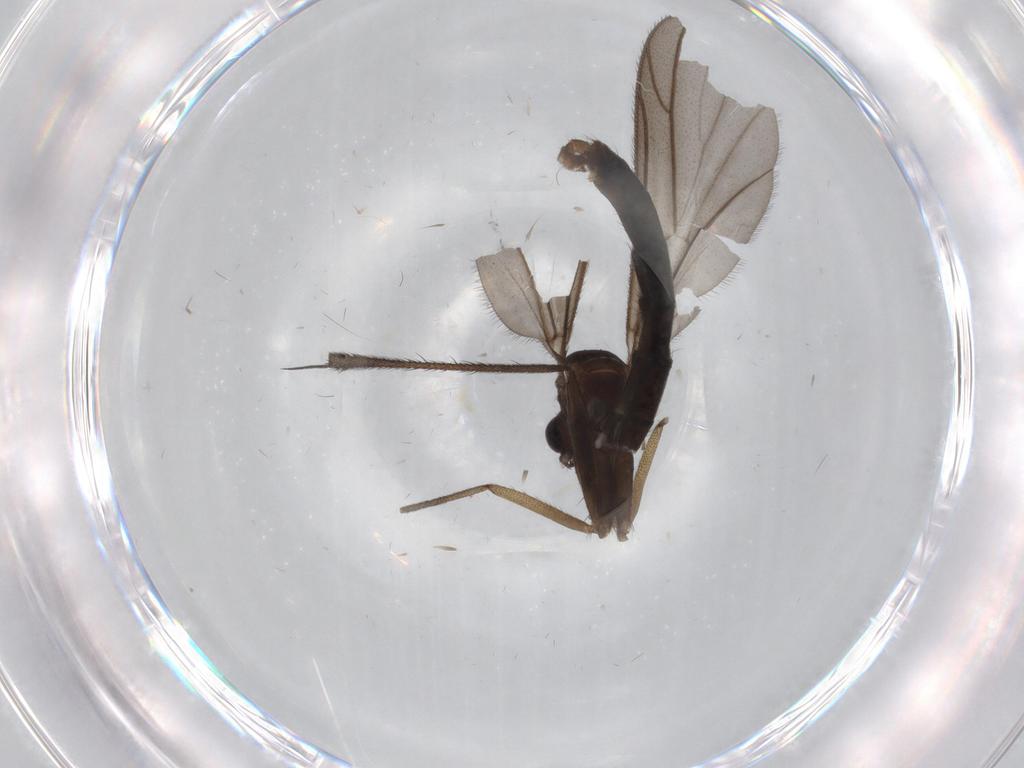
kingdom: Animalia
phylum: Arthropoda
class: Insecta
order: Diptera
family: Ditomyiidae
